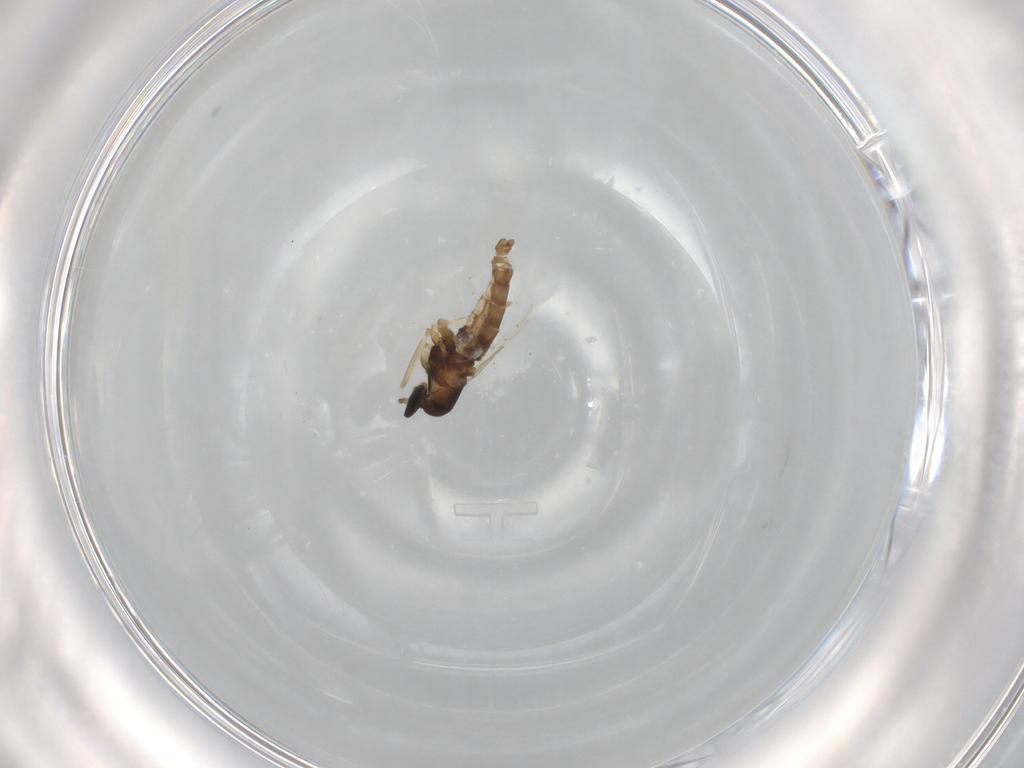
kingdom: Animalia
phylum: Arthropoda
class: Insecta
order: Diptera
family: Cecidomyiidae
